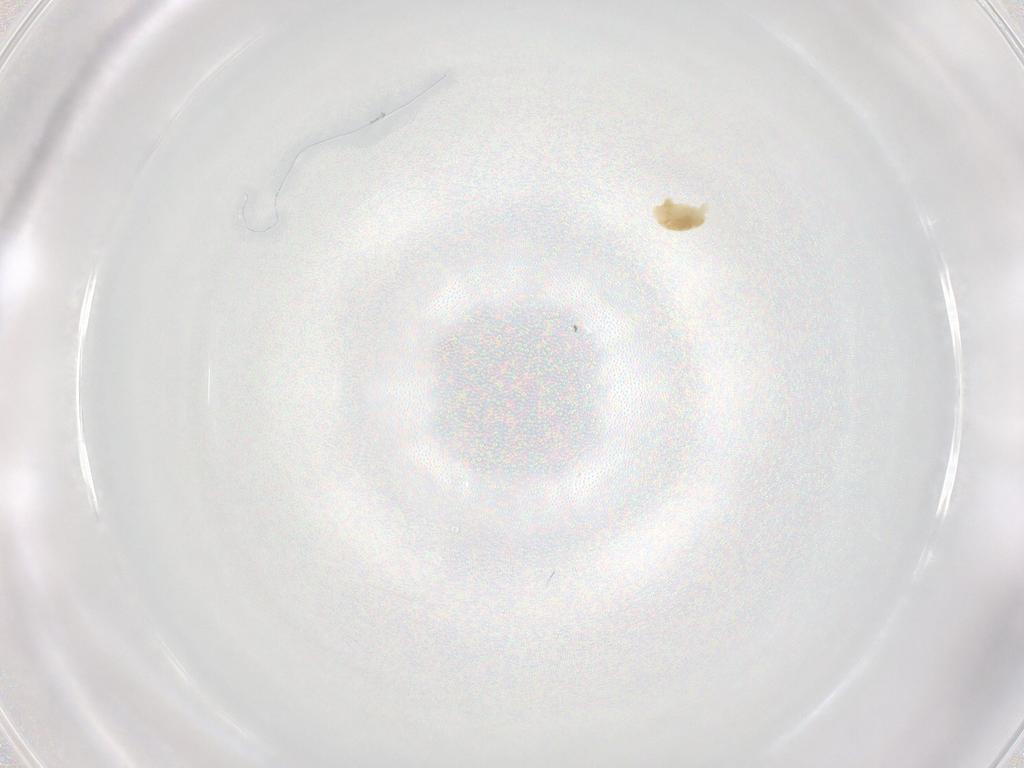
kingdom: Animalia
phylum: Arthropoda
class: Arachnida
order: Trombidiformes
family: Eupodidae
